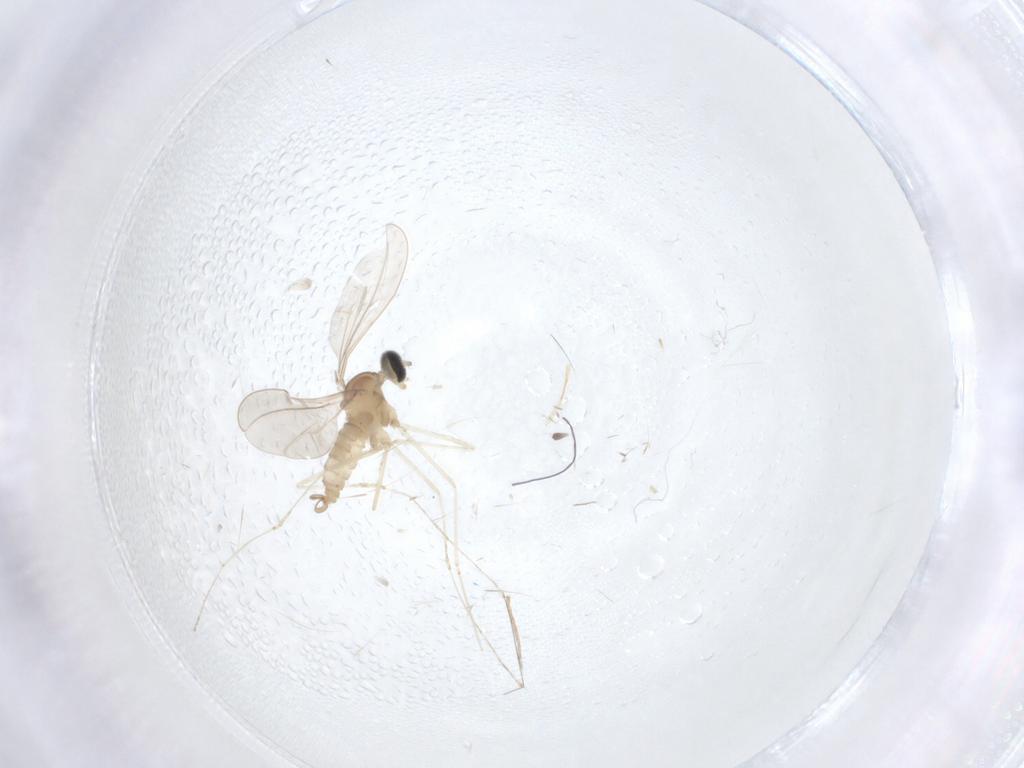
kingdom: Animalia
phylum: Arthropoda
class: Insecta
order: Diptera
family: Cecidomyiidae
